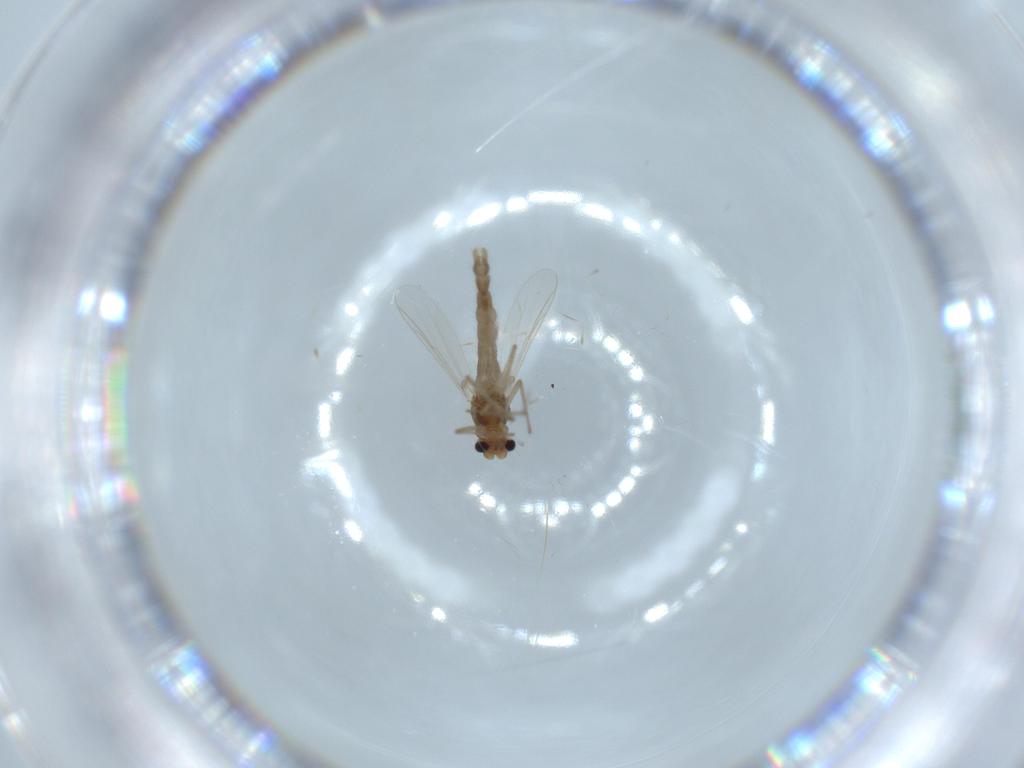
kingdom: Animalia
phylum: Arthropoda
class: Insecta
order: Diptera
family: Chironomidae
